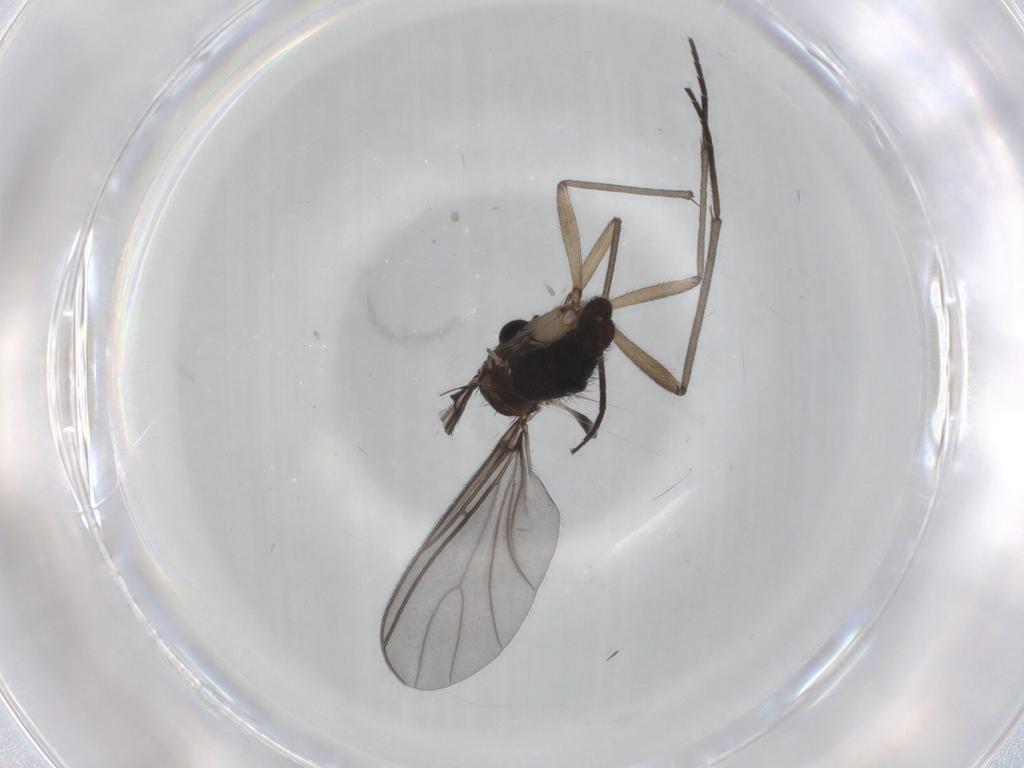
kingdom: Animalia
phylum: Arthropoda
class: Insecta
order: Diptera
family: Sciaridae
